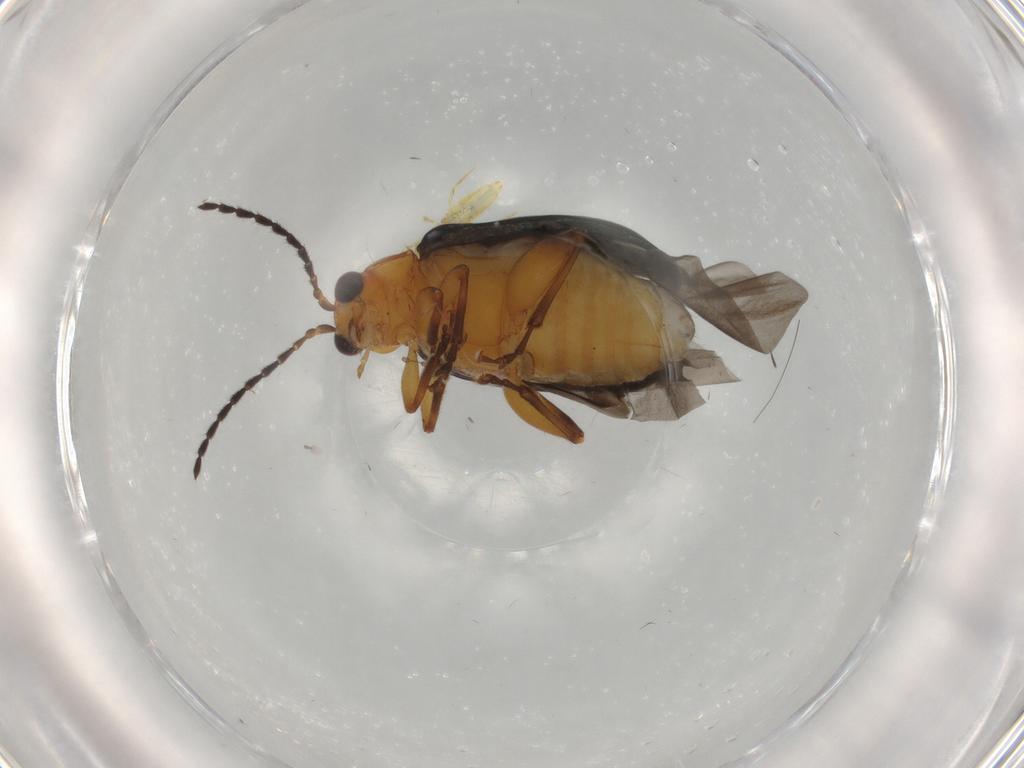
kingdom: Animalia
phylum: Arthropoda
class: Insecta
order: Coleoptera
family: Chrysomelidae
